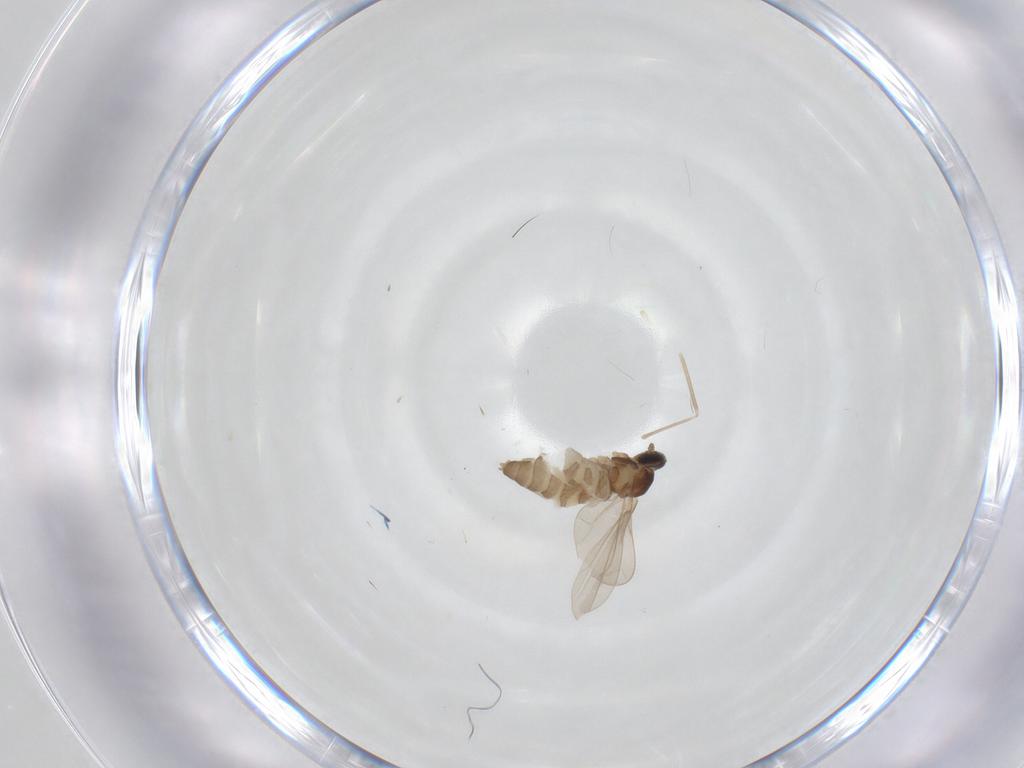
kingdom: Animalia
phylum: Arthropoda
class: Insecta
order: Diptera
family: Cecidomyiidae
